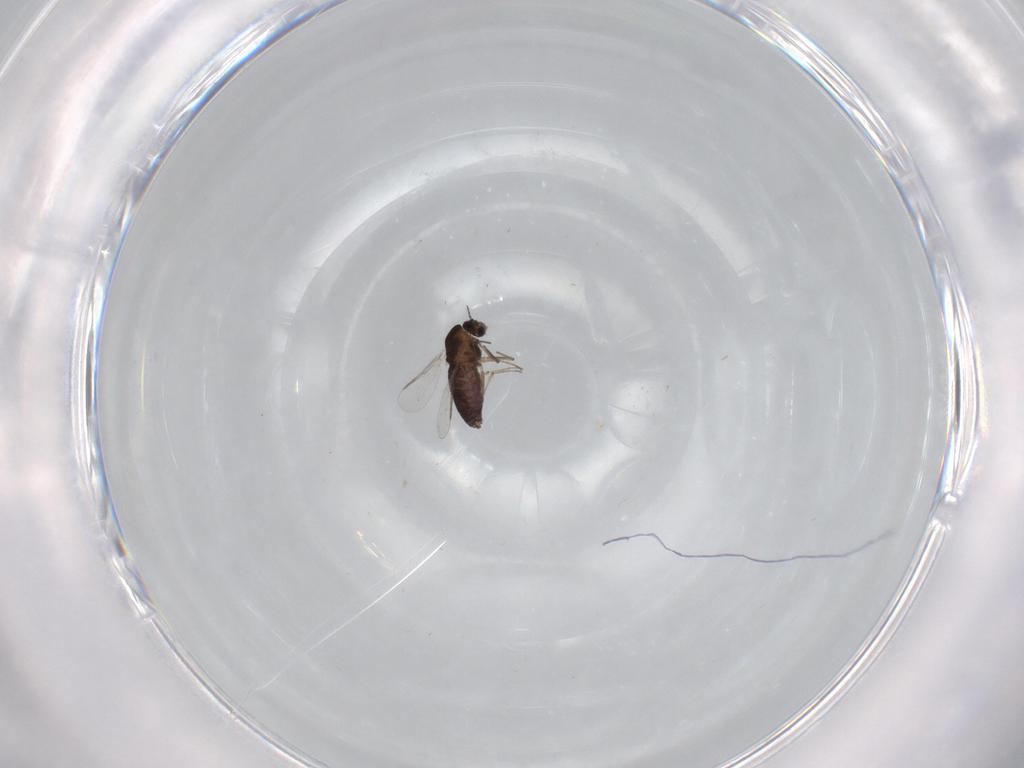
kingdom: Animalia
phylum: Arthropoda
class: Insecta
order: Diptera
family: Chironomidae
